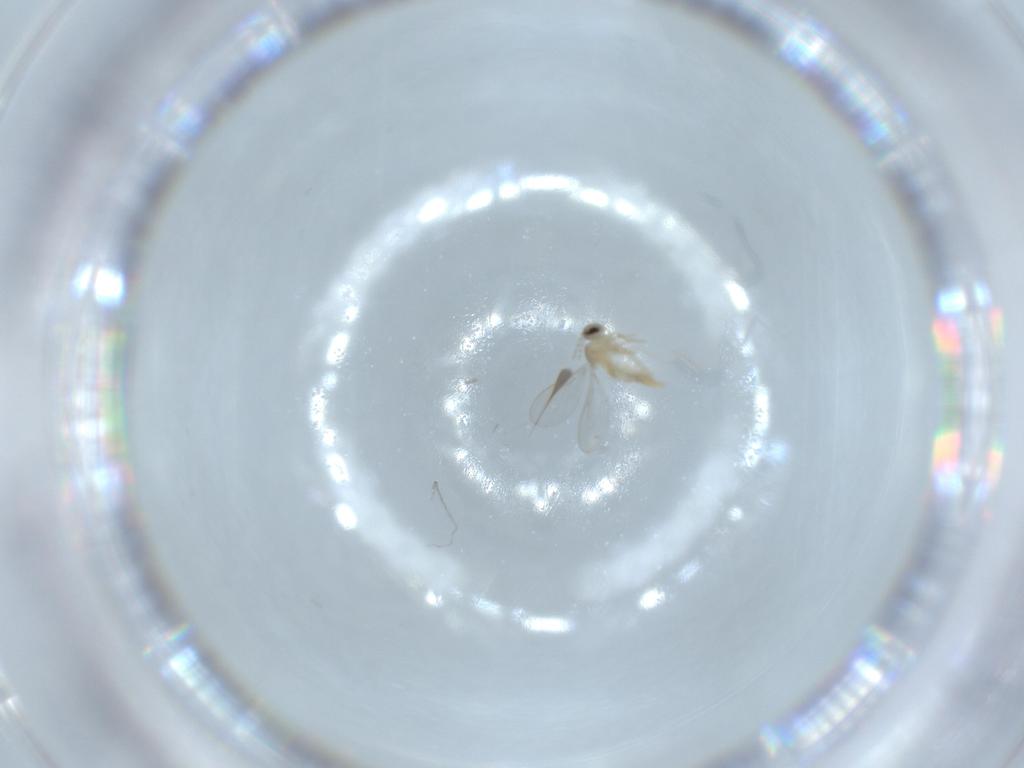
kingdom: Animalia
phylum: Arthropoda
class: Insecta
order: Diptera
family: Cecidomyiidae
